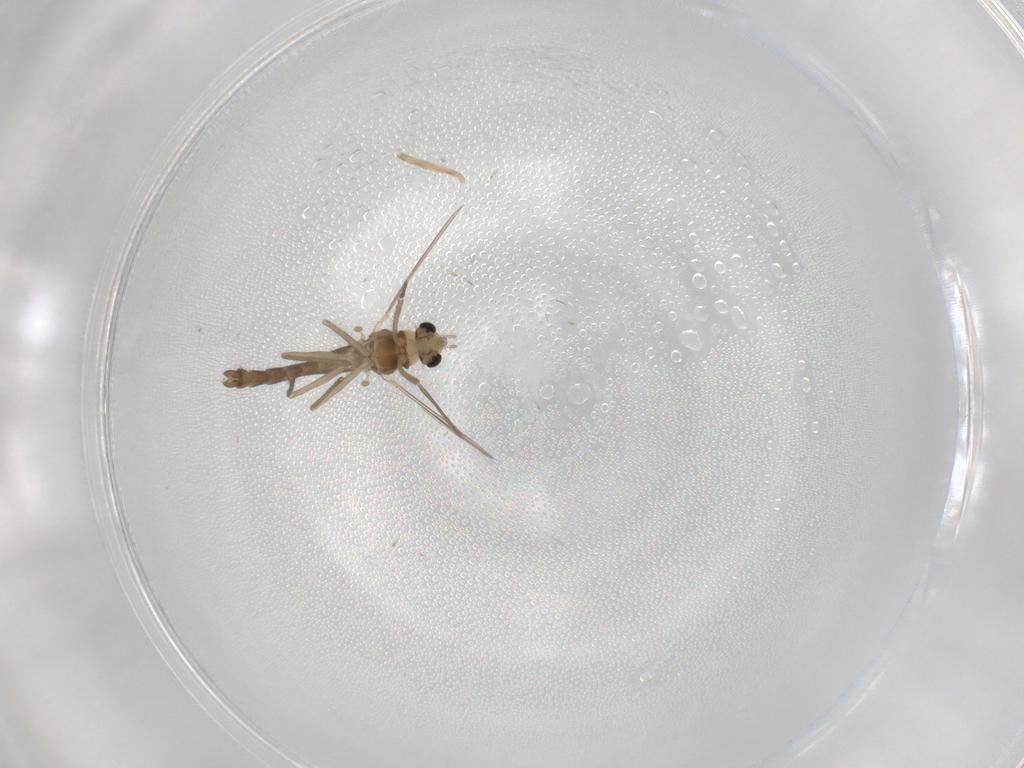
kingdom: Animalia
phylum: Arthropoda
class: Insecta
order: Diptera
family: Chironomidae
